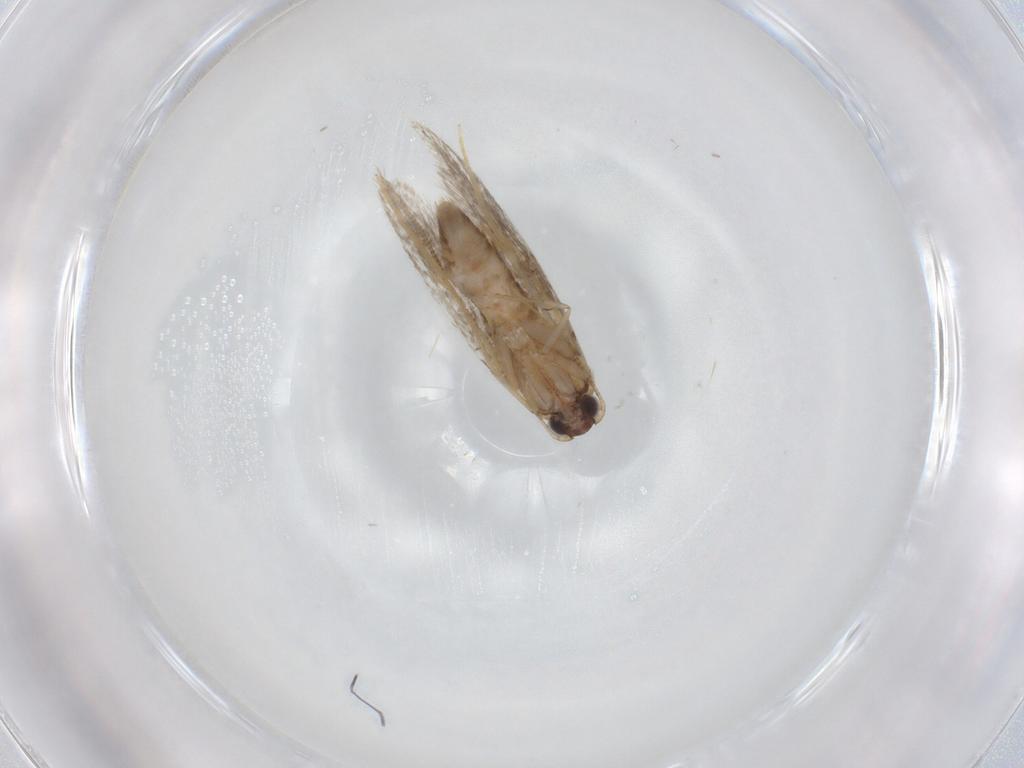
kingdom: Animalia
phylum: Arthropoda
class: Insecta
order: Lepidoptera
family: Tineidae
